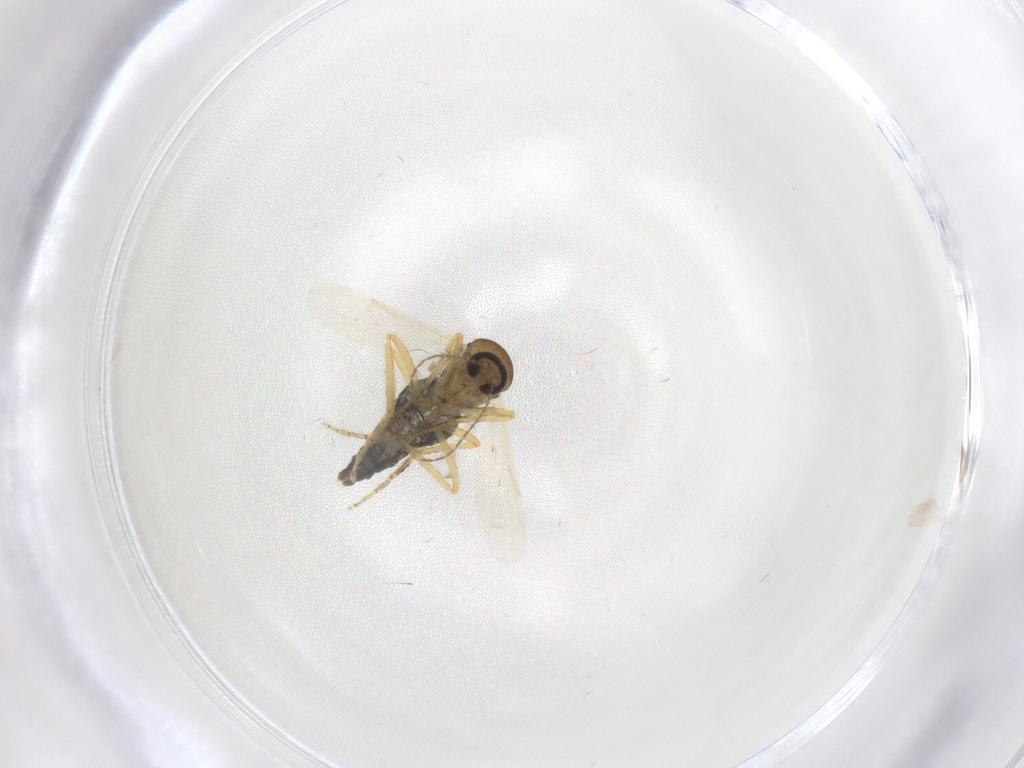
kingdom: Animalia
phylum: Arthropoda
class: Insecta
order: Diptera
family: Ceratopogonidae
